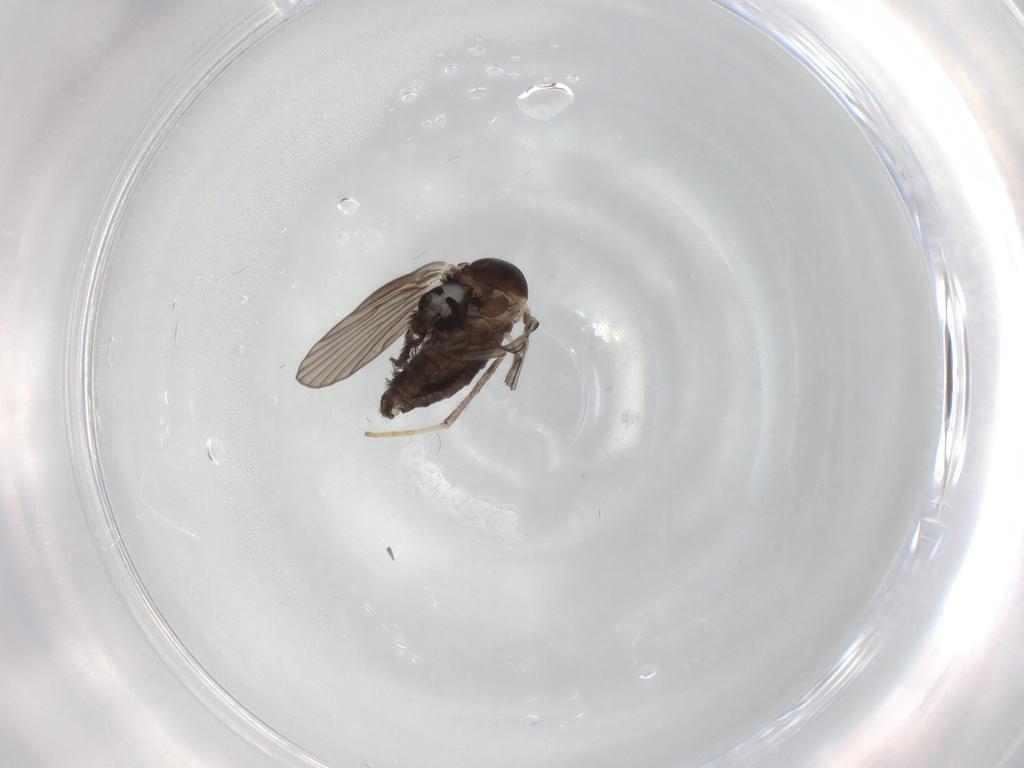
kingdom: Animalia
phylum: Arthropoda
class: Insecta
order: Diptera
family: Psychodidae
